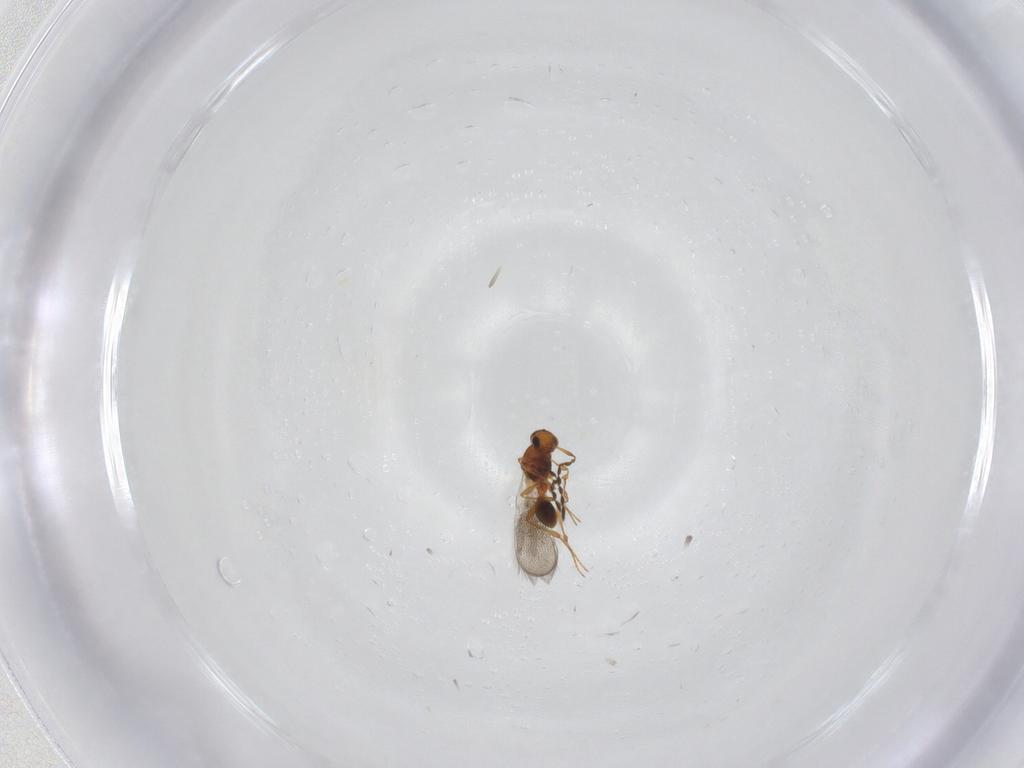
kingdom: Animalia
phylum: Arthropoda
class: Insecta
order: Hymenoptera
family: Platygastridae
